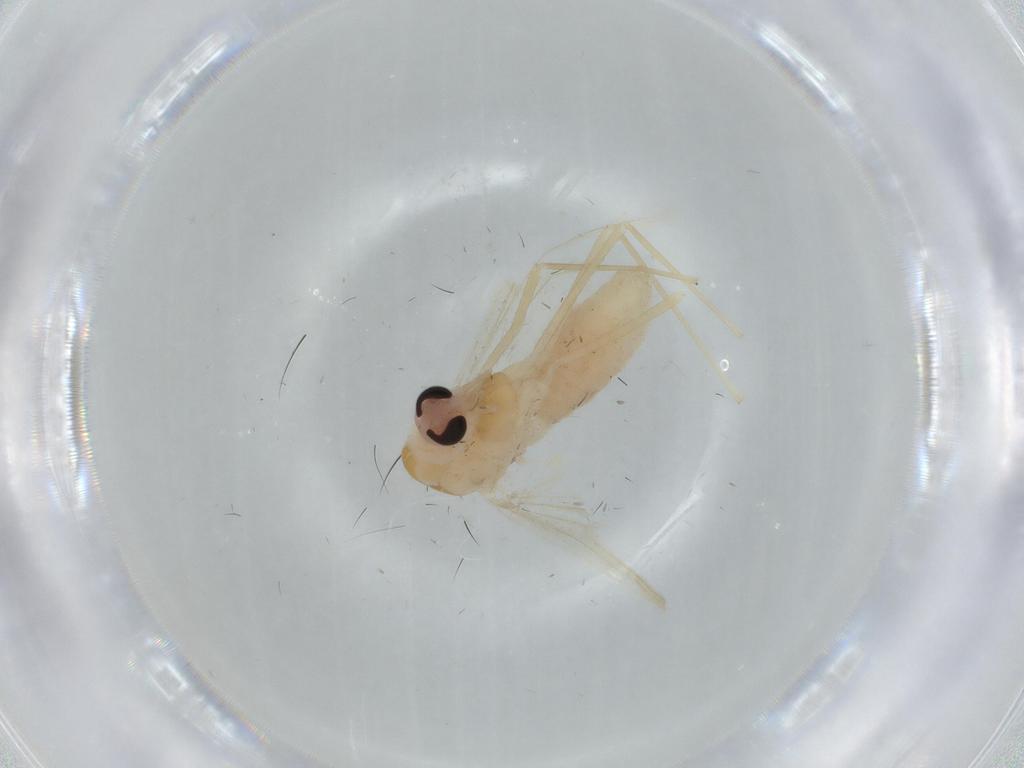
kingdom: Animalia
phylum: Arthropoda
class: Insecta
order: Diptera
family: Chironomidae
